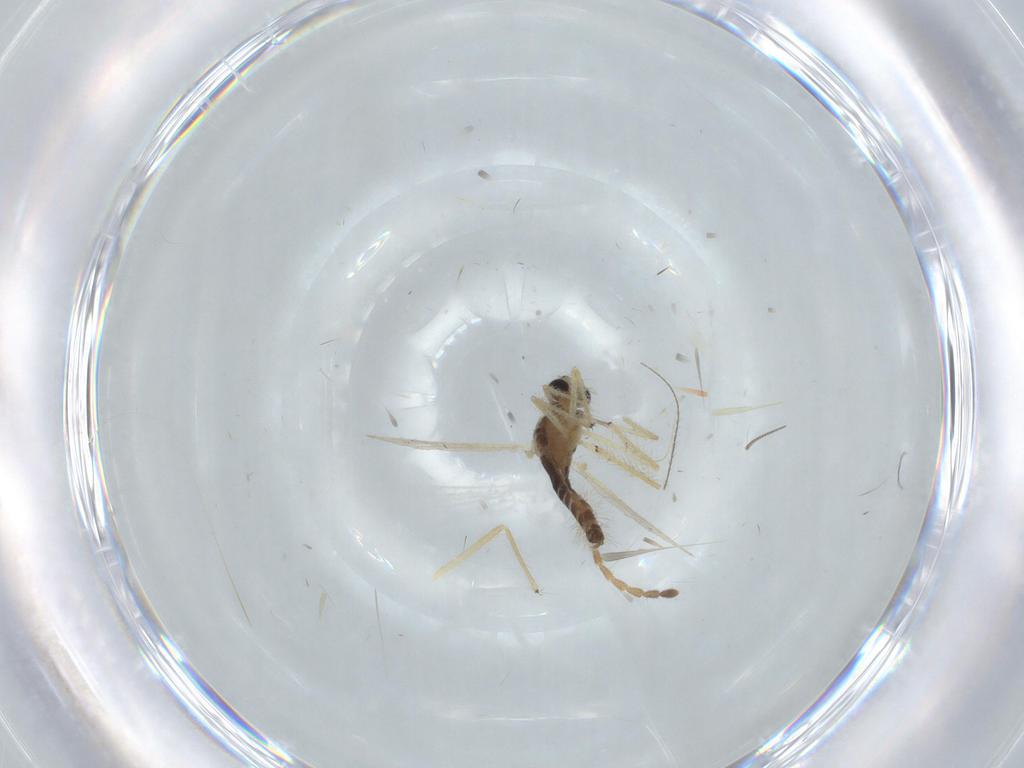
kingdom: Animalia
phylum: Arthropoda
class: Insecta
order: Diptera
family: Chironomidae
